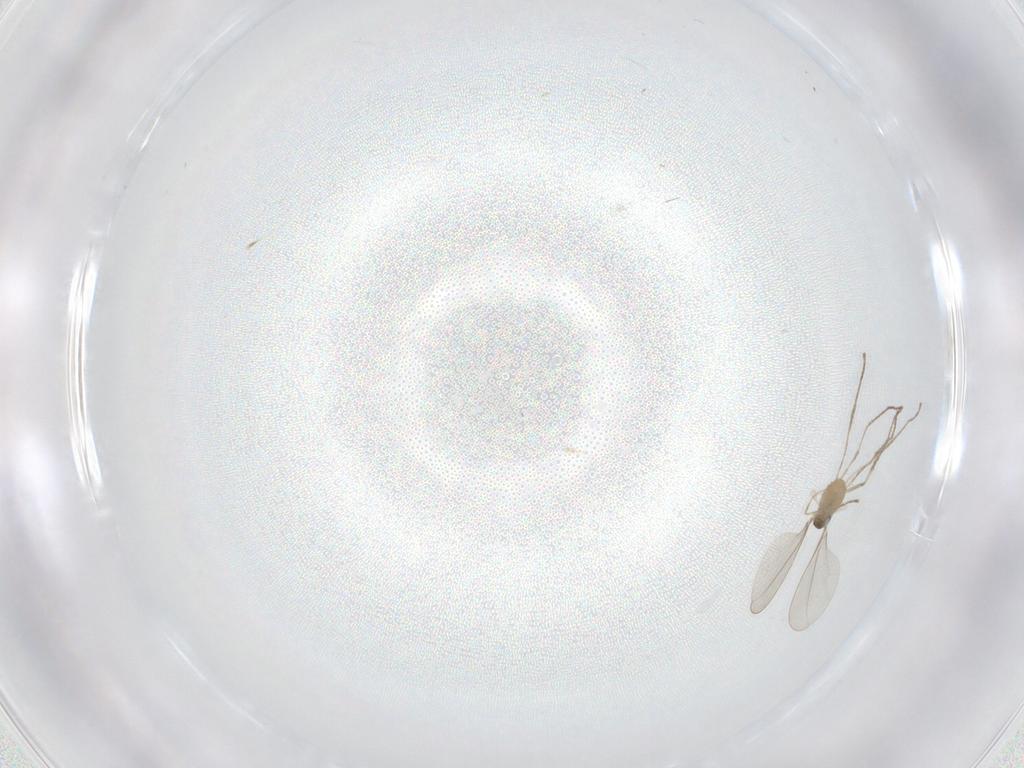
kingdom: Animalia
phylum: Arthropoda
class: Insecta
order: Diptera
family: Cecidomyiidae
